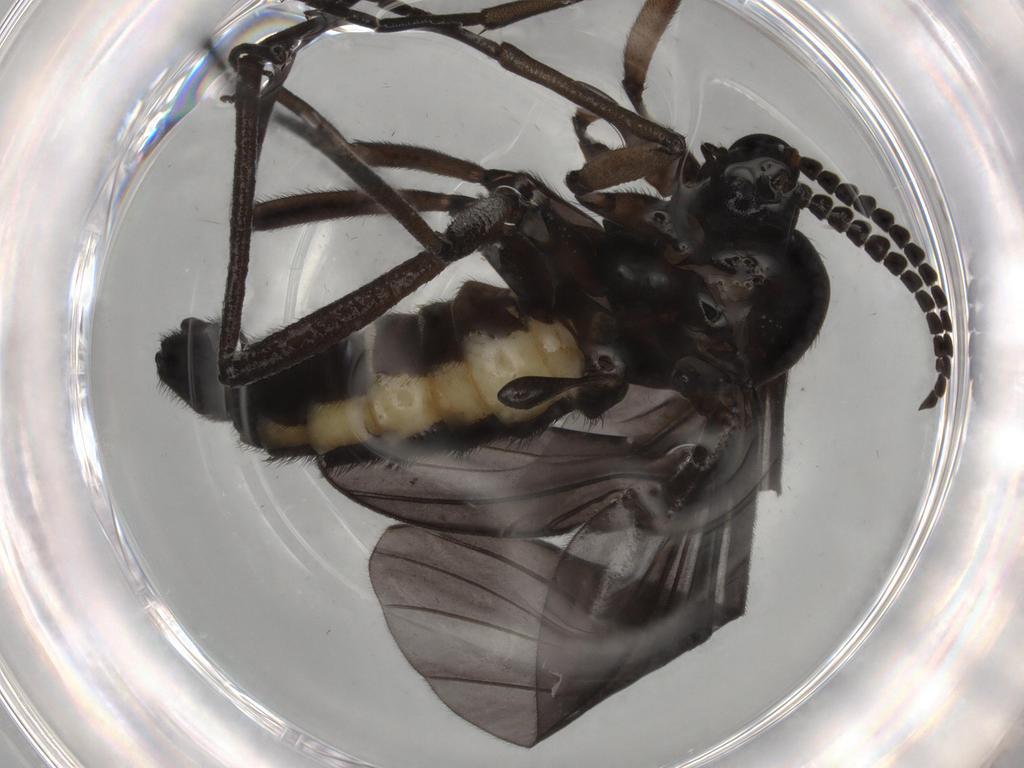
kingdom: Animalia
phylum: Arthropoda
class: Insecta
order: Diptera
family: Sciaridae
